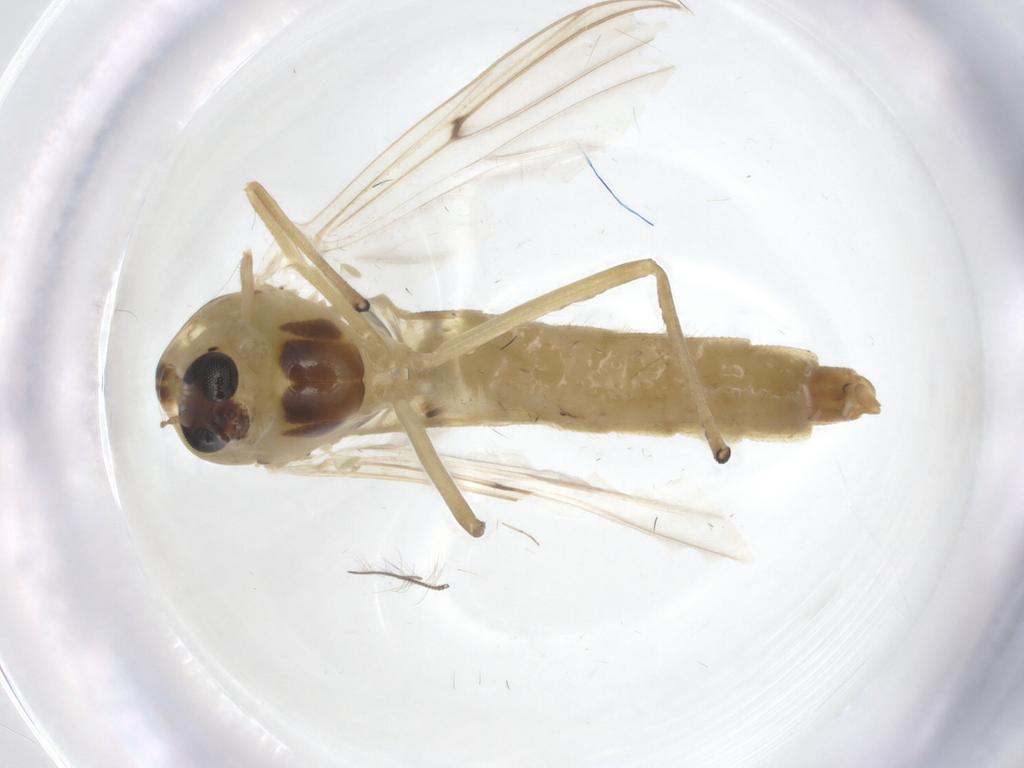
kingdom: Animalia
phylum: Arthropoda
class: Insecta
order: Diptera
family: Chironomidae
